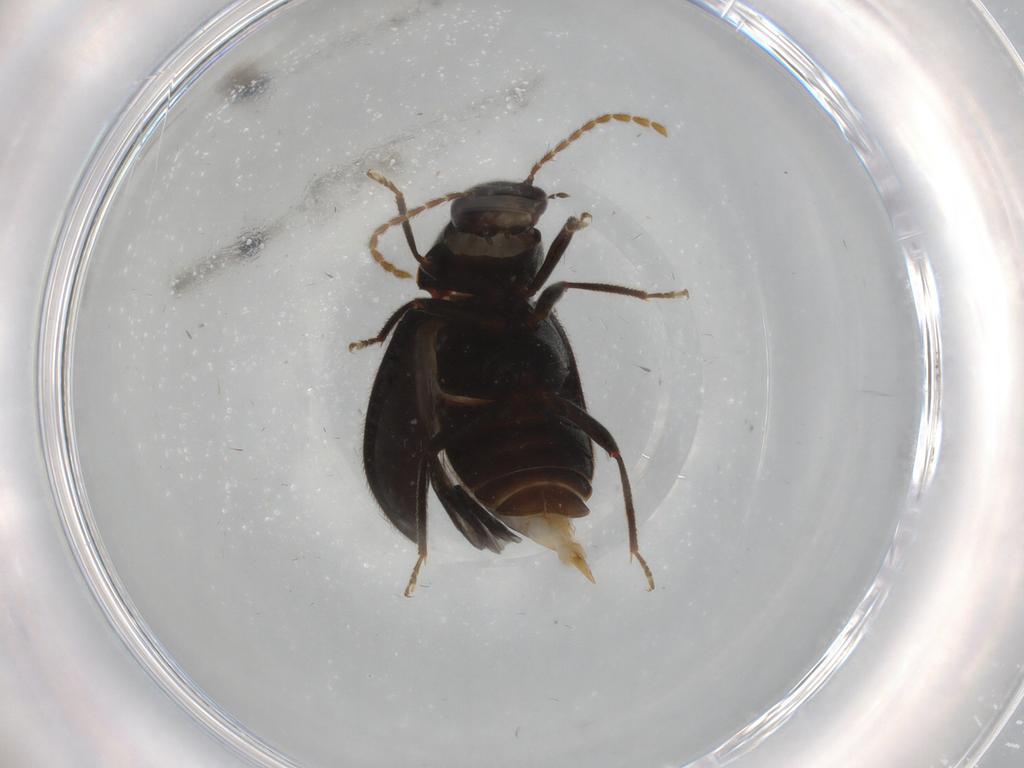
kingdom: Animalia
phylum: Arthropoda
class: Insecta
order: Coleoptera
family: Ptilodactylidae
